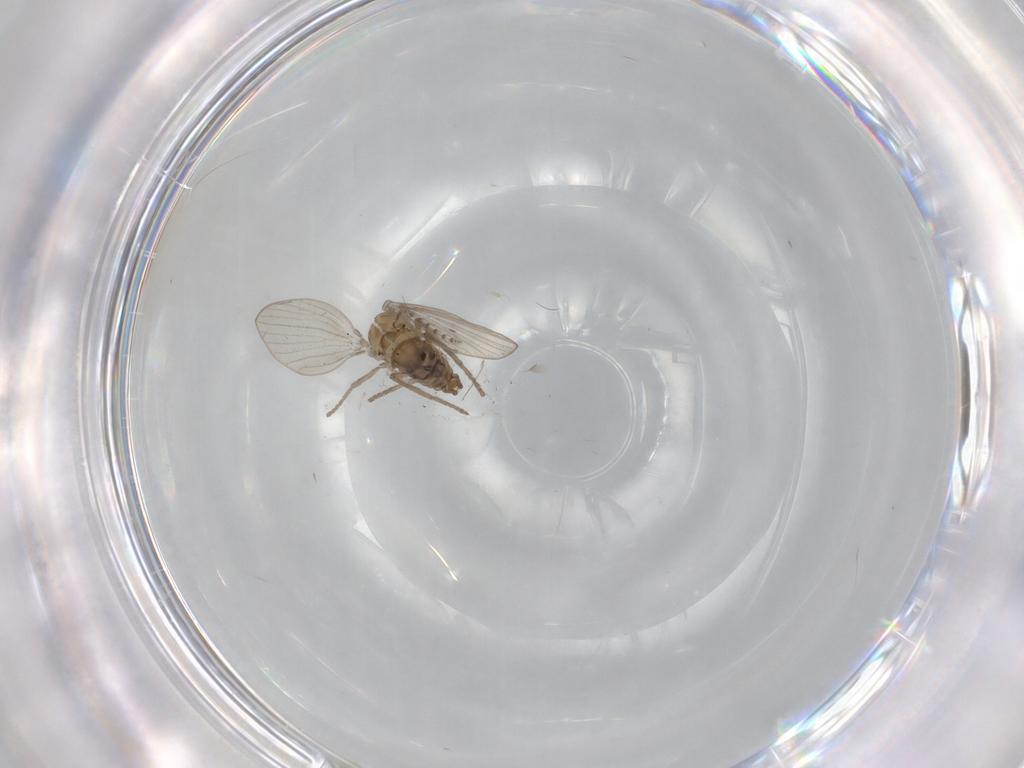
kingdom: Animalia
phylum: Arthropoda
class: Insecta
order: Diptera
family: Psychodidae
